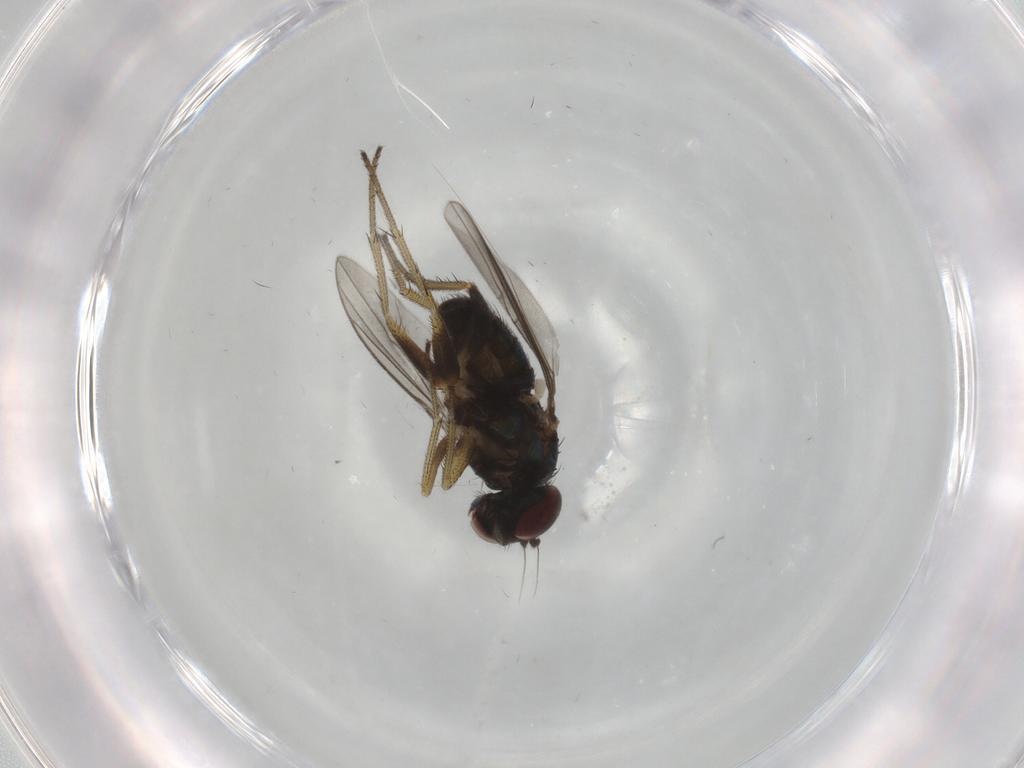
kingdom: Animalia
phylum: Arthropoda
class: Insecta
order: Diptera
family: Dolichopodidae
